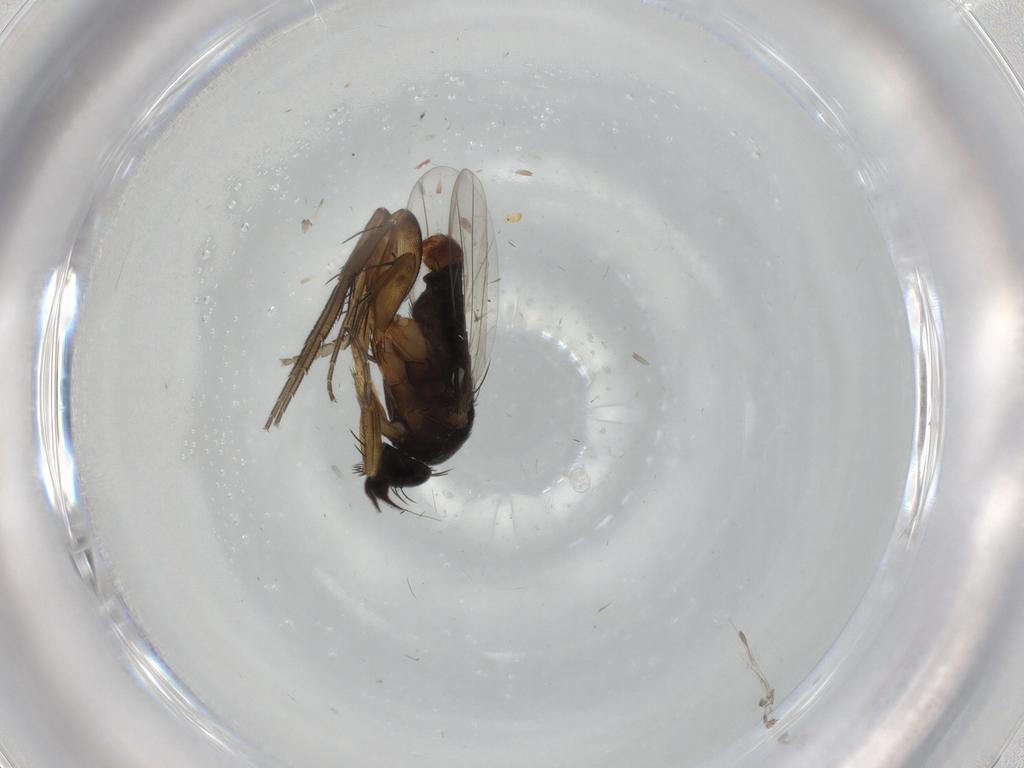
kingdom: Animalia
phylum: Arthropoda
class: Insecta
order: Diptera
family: Phoridae
